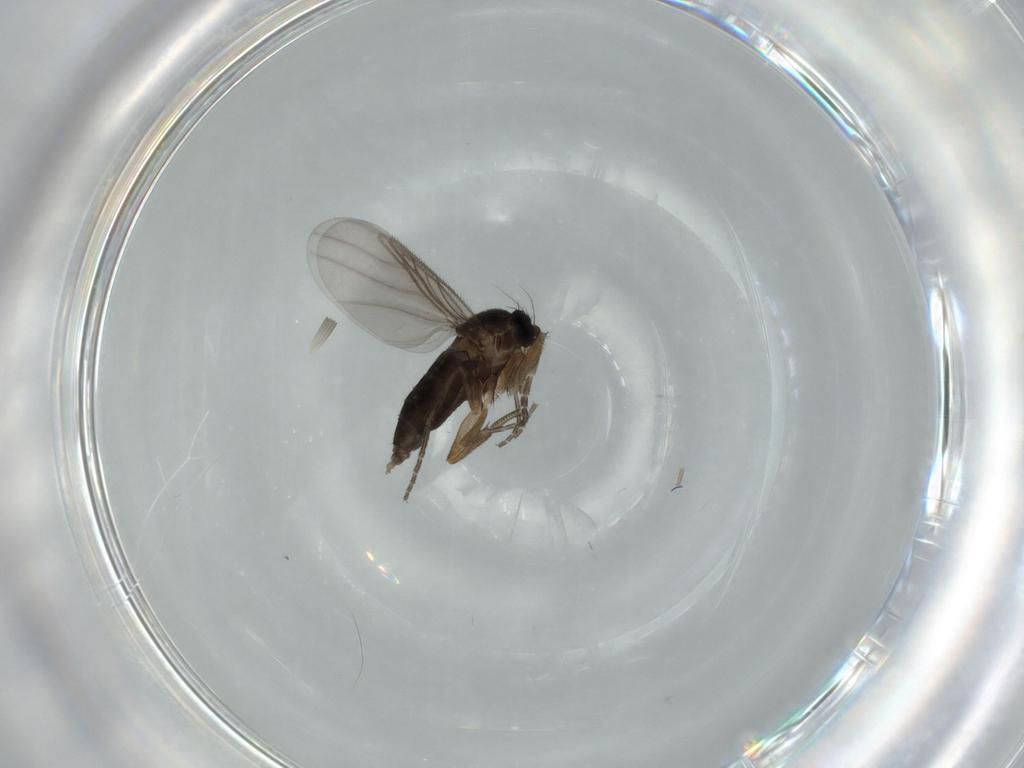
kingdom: Animalia
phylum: Arthropoda
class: Insecta
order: Diptera
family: Phoridae
